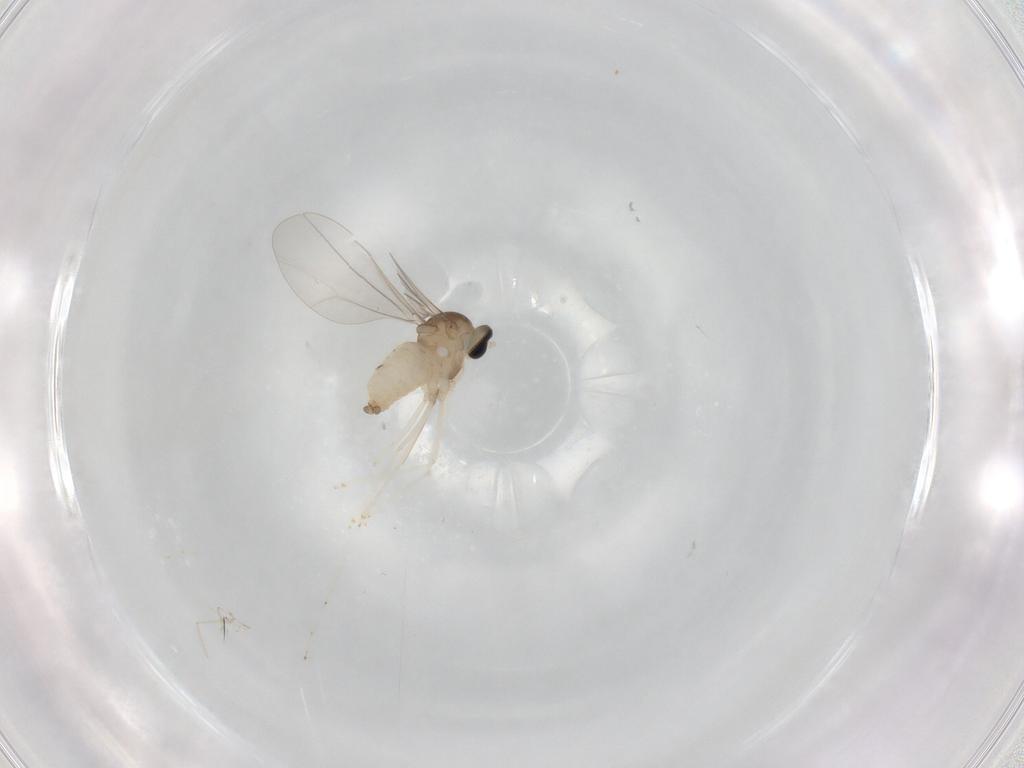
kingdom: Animalia
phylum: Arthropoda
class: Insecta
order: Diptera
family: Cecidomyiidae
